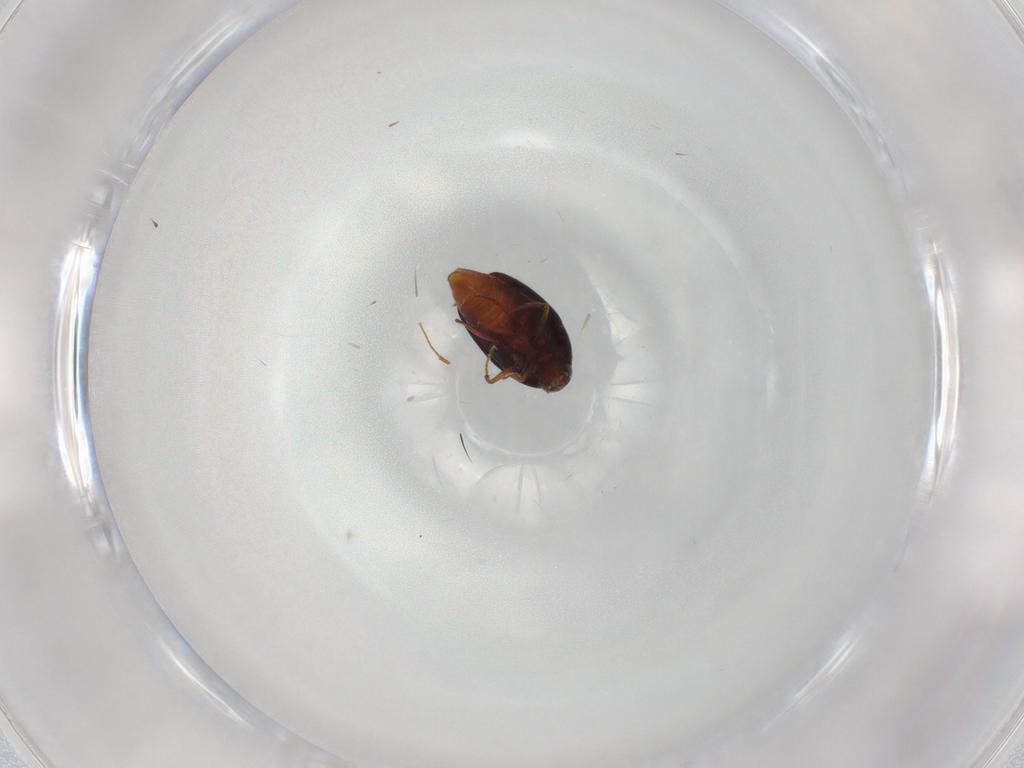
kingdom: Animalia
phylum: Arthropoda
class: Insecta
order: Coleoptera
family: Staphylinidae
